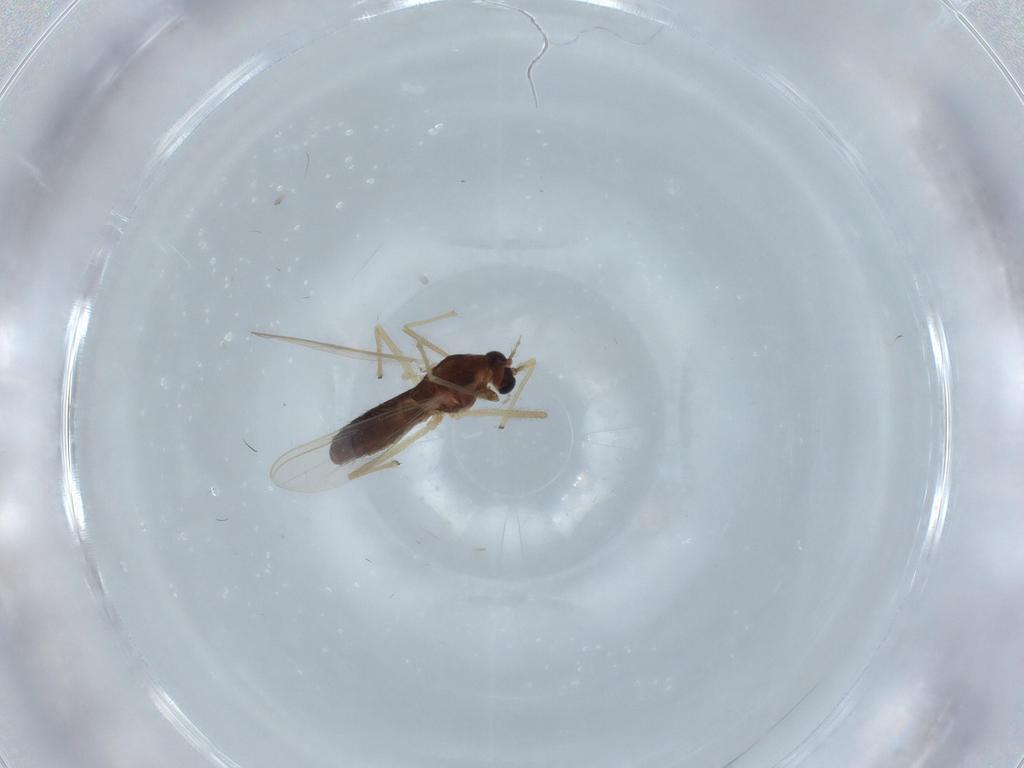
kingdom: Animalia
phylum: Arthropoda
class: Insecta
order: Diptera
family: Chironomidae
